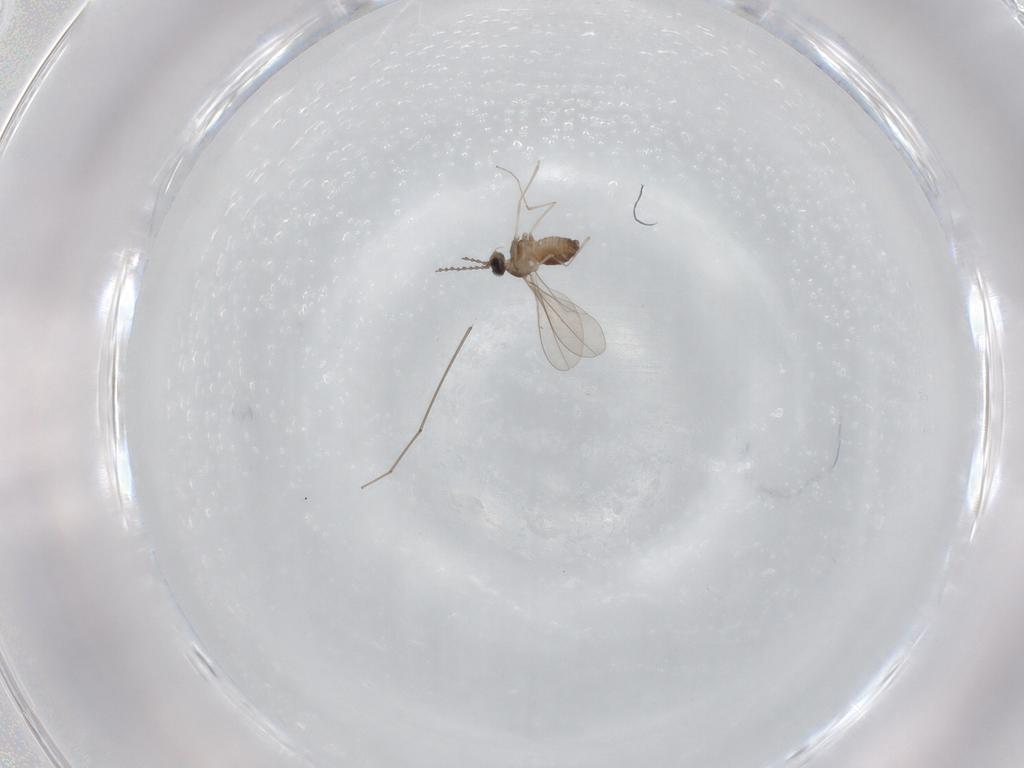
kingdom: Animalia
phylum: Arthropoda
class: Insecta
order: Diptera
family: Cecidomyiidae
